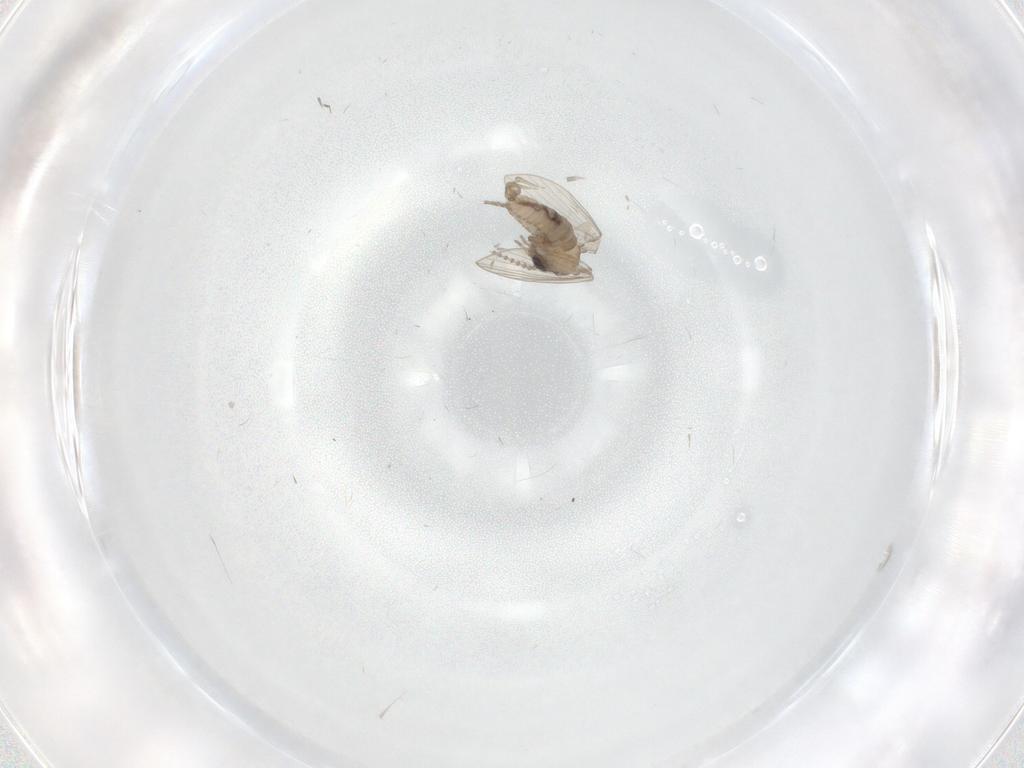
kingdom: Animalia
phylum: Arthropoda
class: Insecta
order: Diptera
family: Psychodidae
